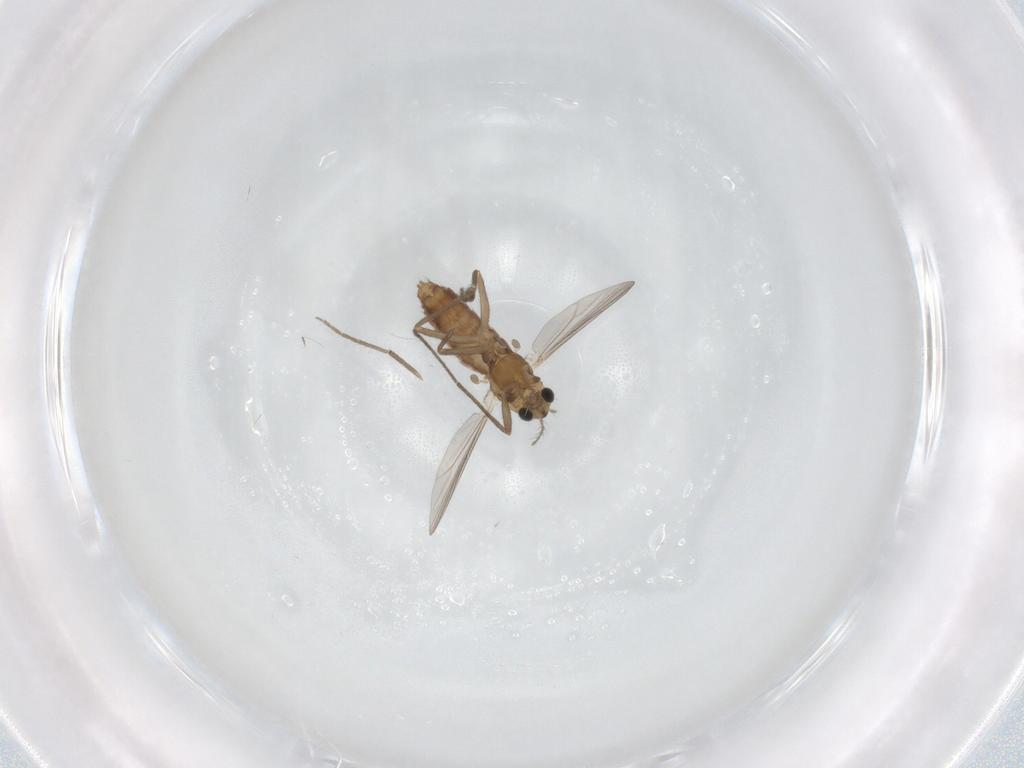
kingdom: Animalia
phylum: Arthropoda
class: Insecta
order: Diptera
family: Chironomidae
